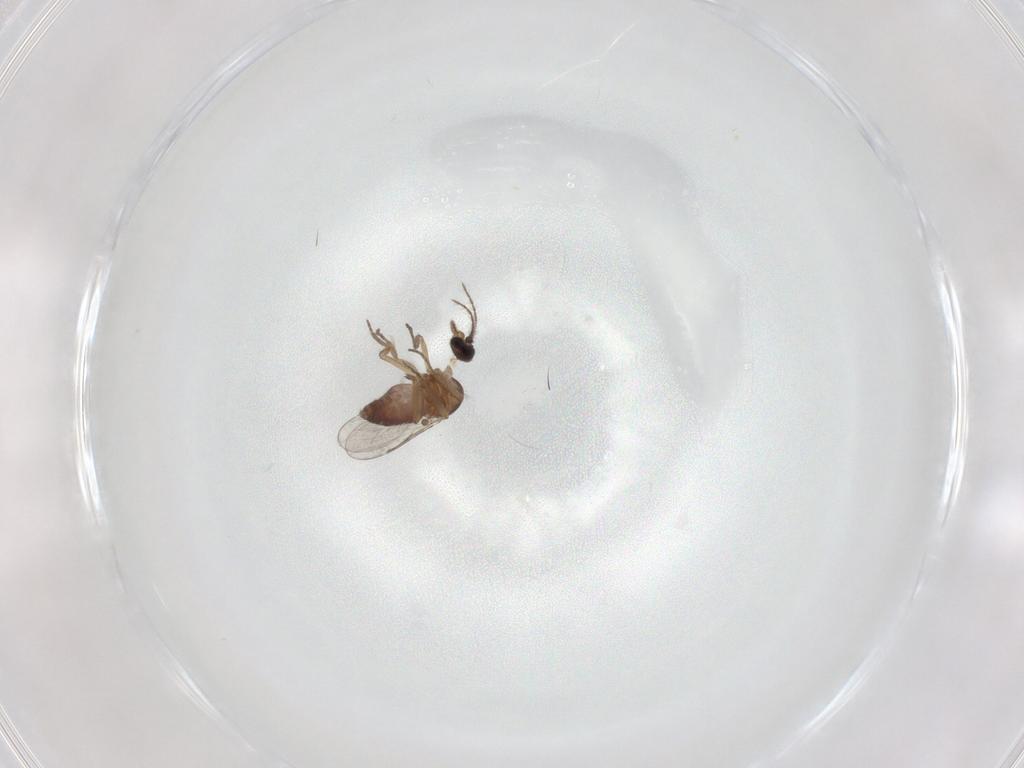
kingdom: Animalia
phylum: Arthropoda
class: Insecta
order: Diptera
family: Calliphoridae
